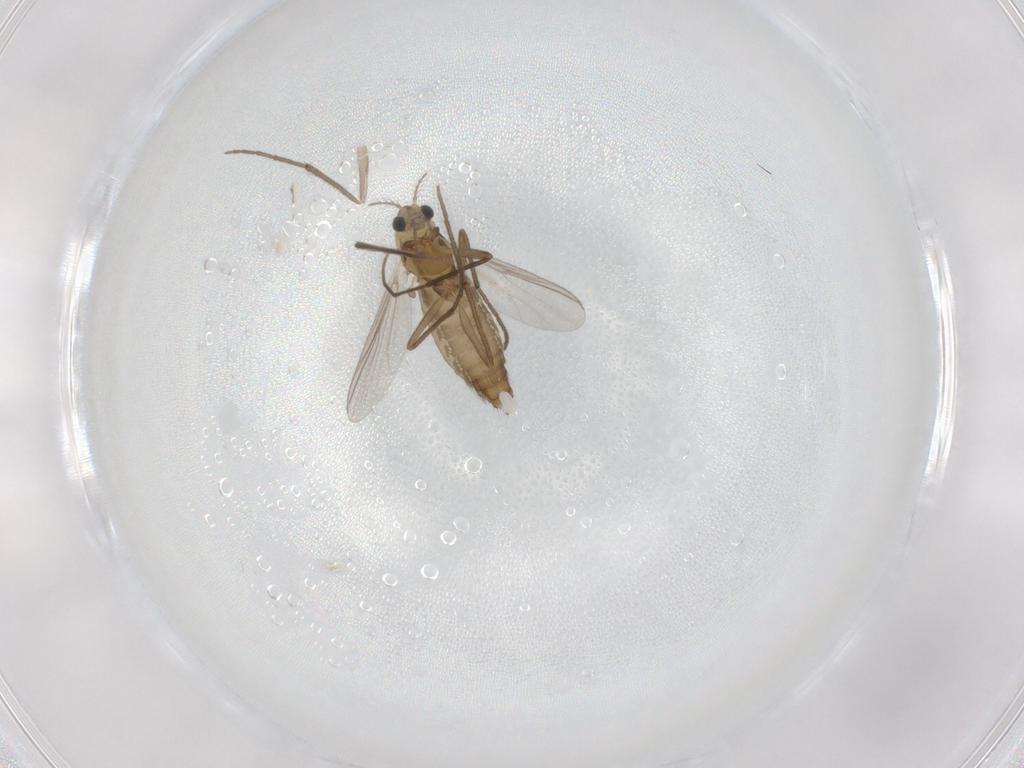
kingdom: Animalia
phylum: Arthropoda
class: Insecta
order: Diptera
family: Chironomidae
